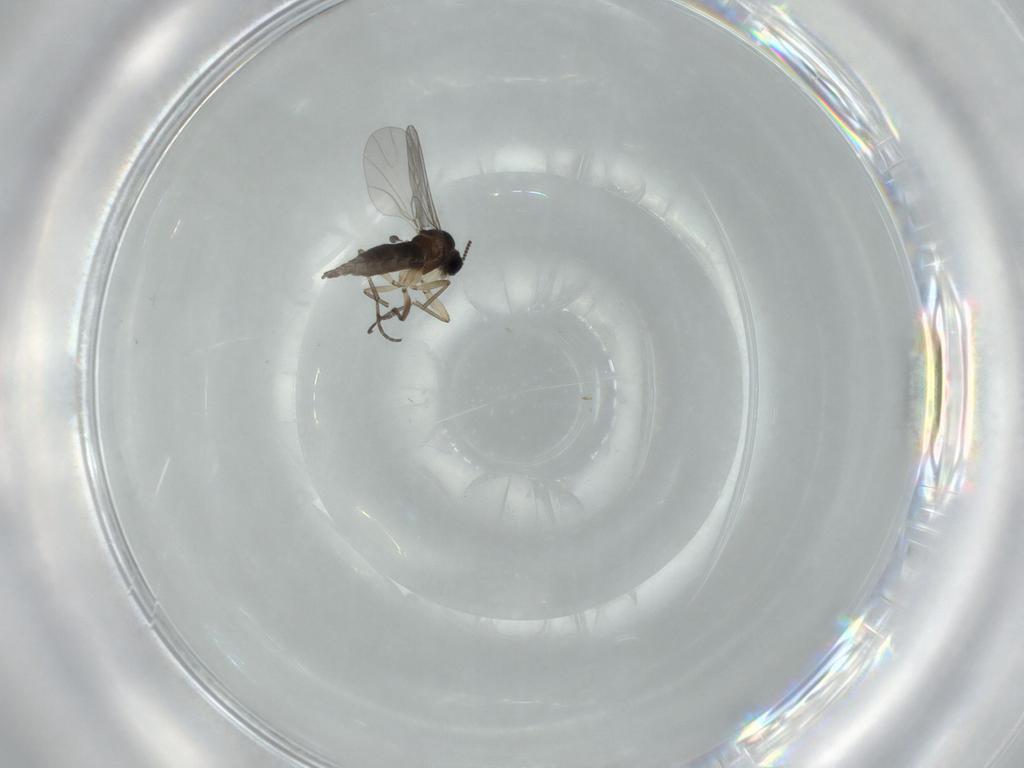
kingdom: Animalia
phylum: Arthropoda
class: Insecta
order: Diptera
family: Sciaridae
